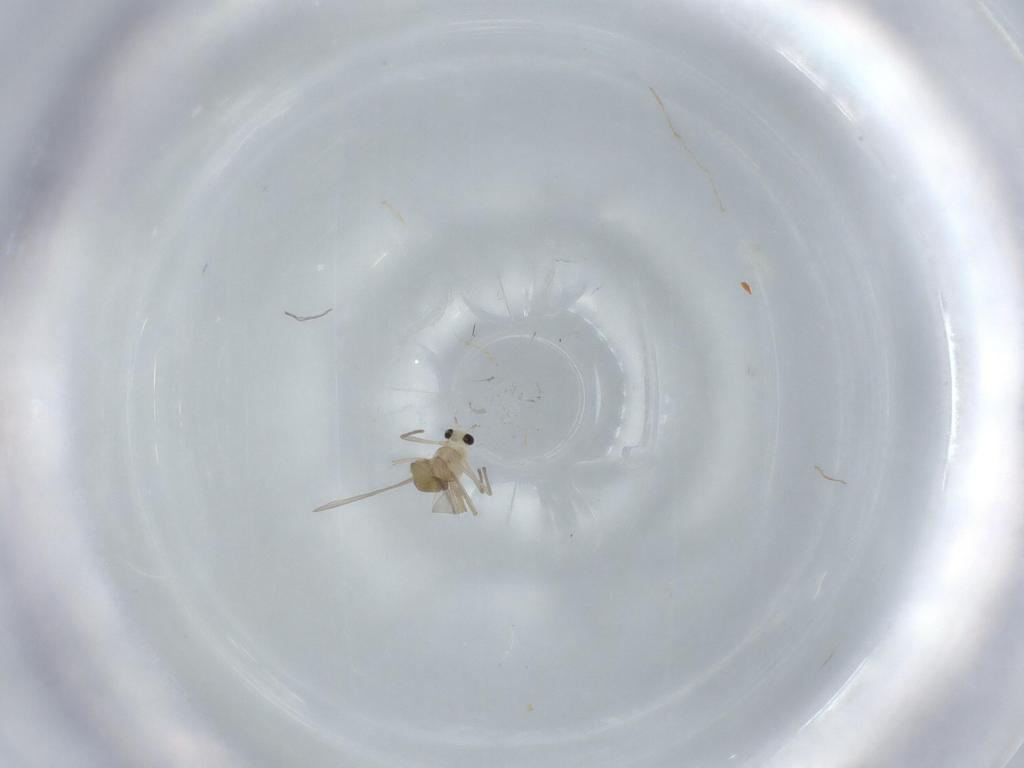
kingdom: Animalia
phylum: Arthropoda
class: Insecta
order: Diptera
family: Chironomidae
